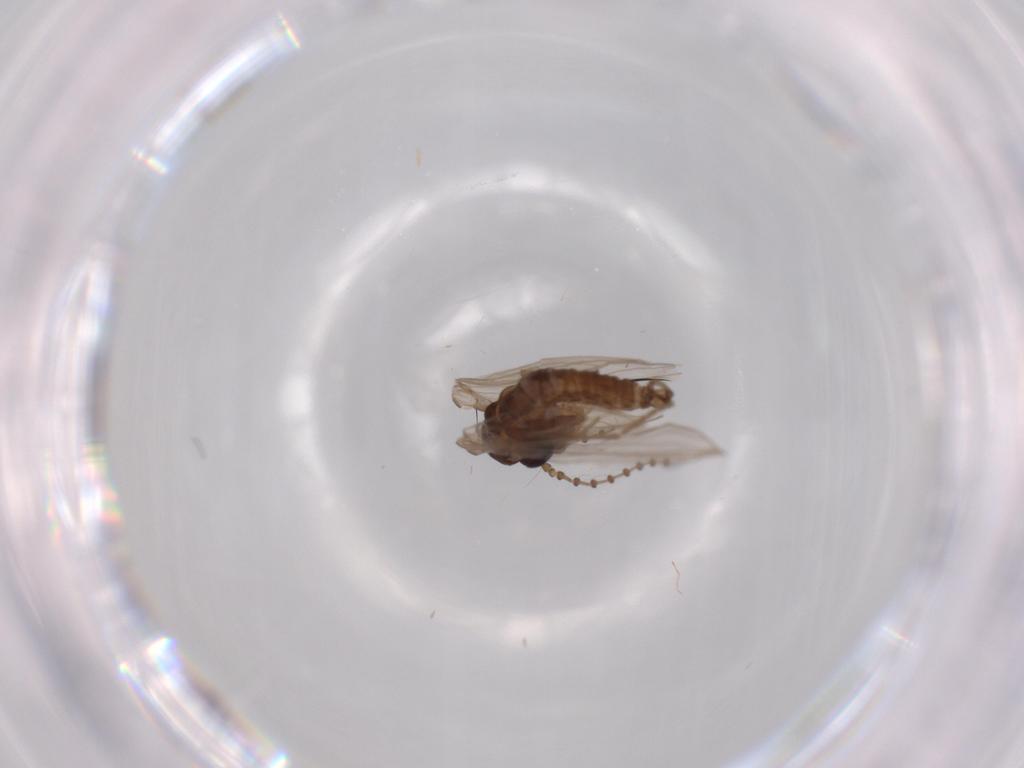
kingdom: Animalia
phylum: Arthropoda
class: Insecta
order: Diptera
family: Psychodidae
